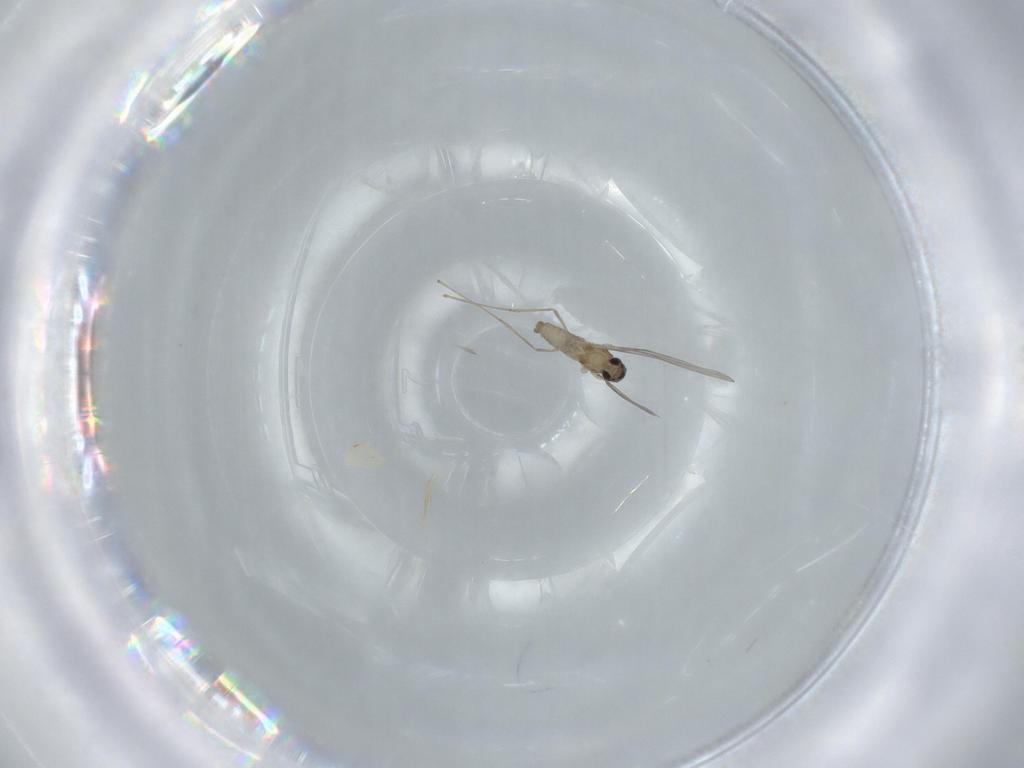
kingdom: Animalia
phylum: Arthropoda
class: Insecta
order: Diptera
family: Cecidomyiidae
